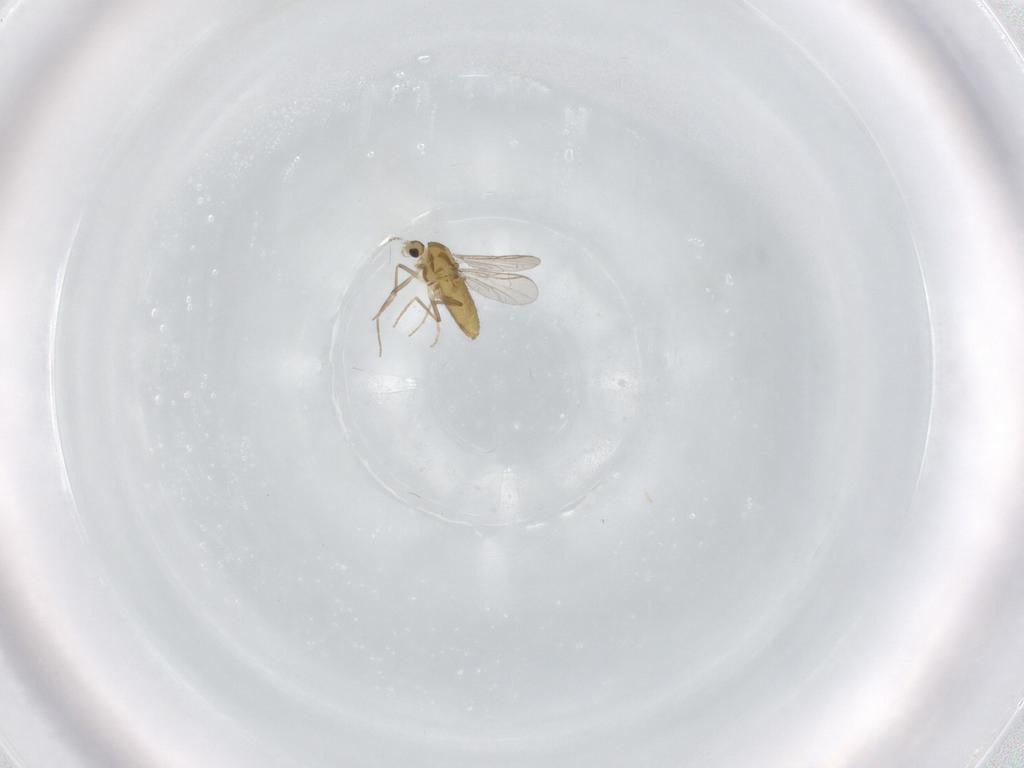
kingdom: Animalia
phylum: Arthropoda
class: Insecta
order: Diptera
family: Chironomidae
